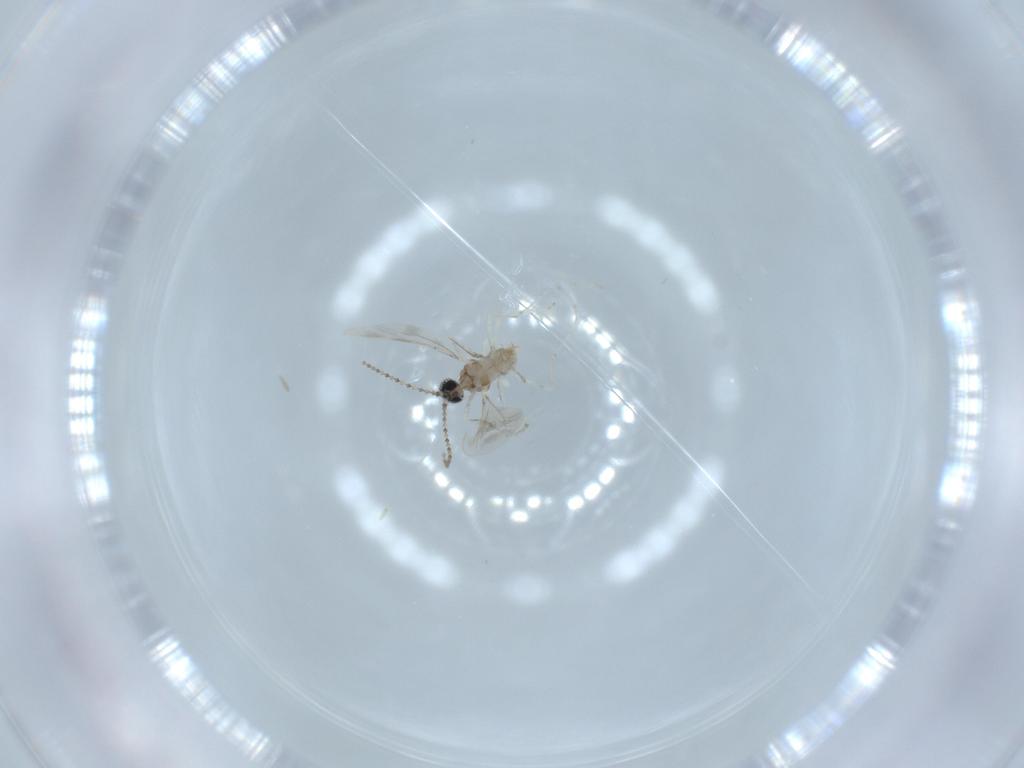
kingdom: Animalia
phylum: Arthropoda
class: Insecta
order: Diptera
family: Cecidomyiidae
